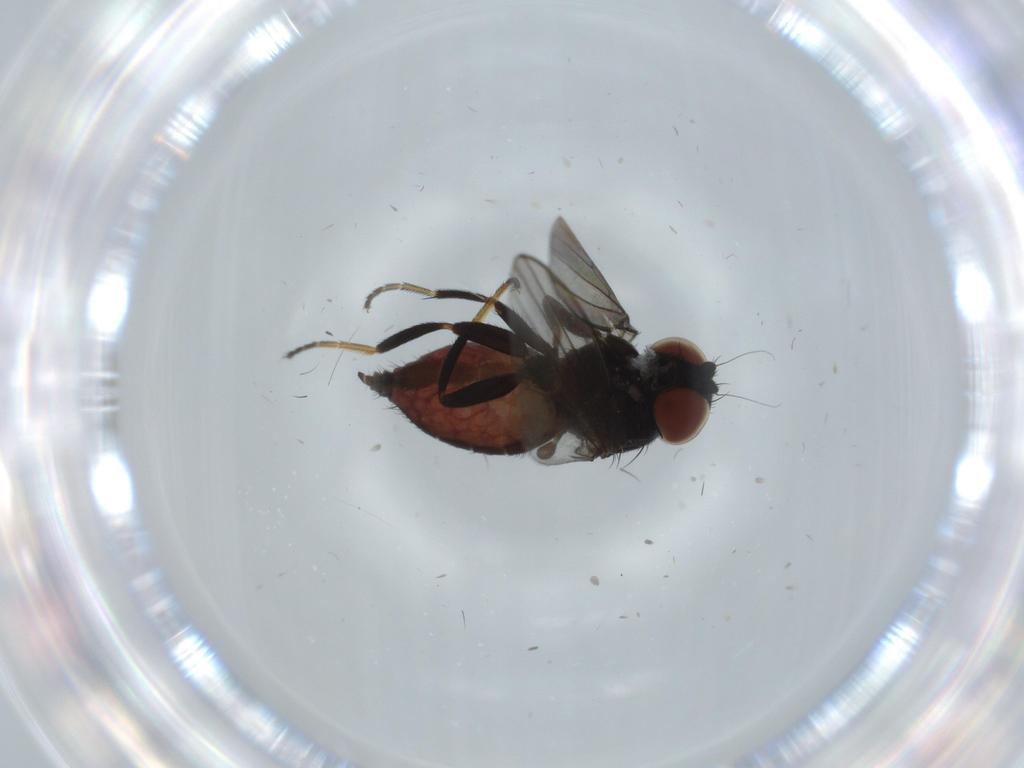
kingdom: Animalia
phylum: Arthropoda
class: Insecta
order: Diptera
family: Milichiidae
